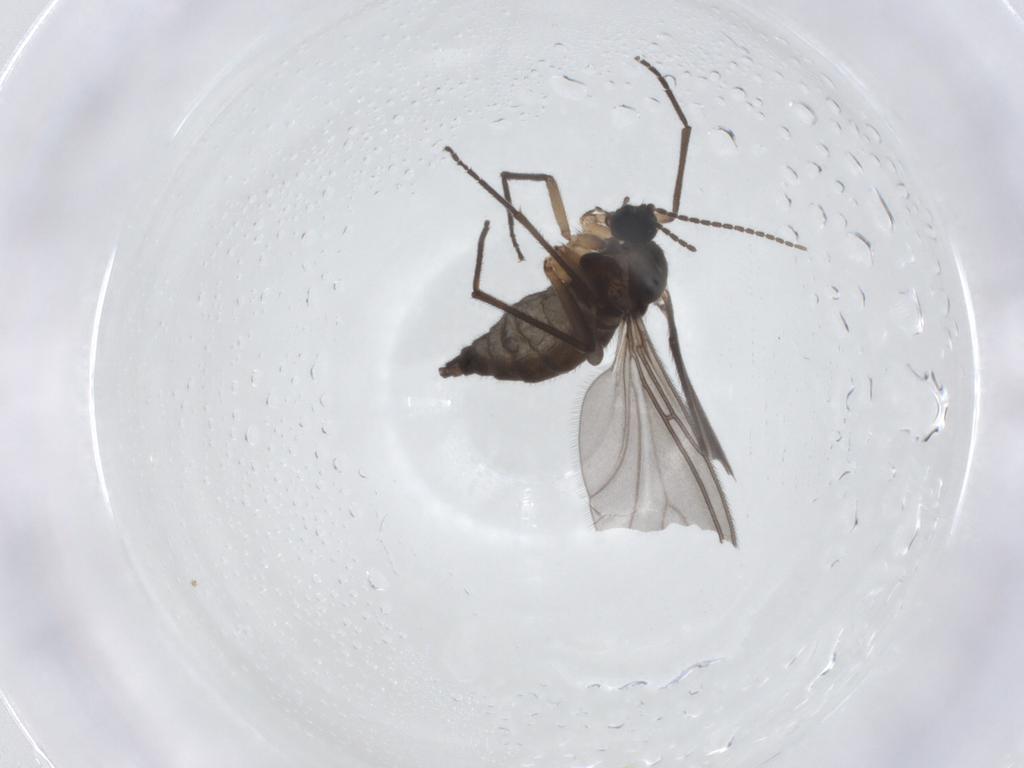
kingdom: Animalia
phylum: Arthropoda
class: Insecta
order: Diptera
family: Sciaridae
